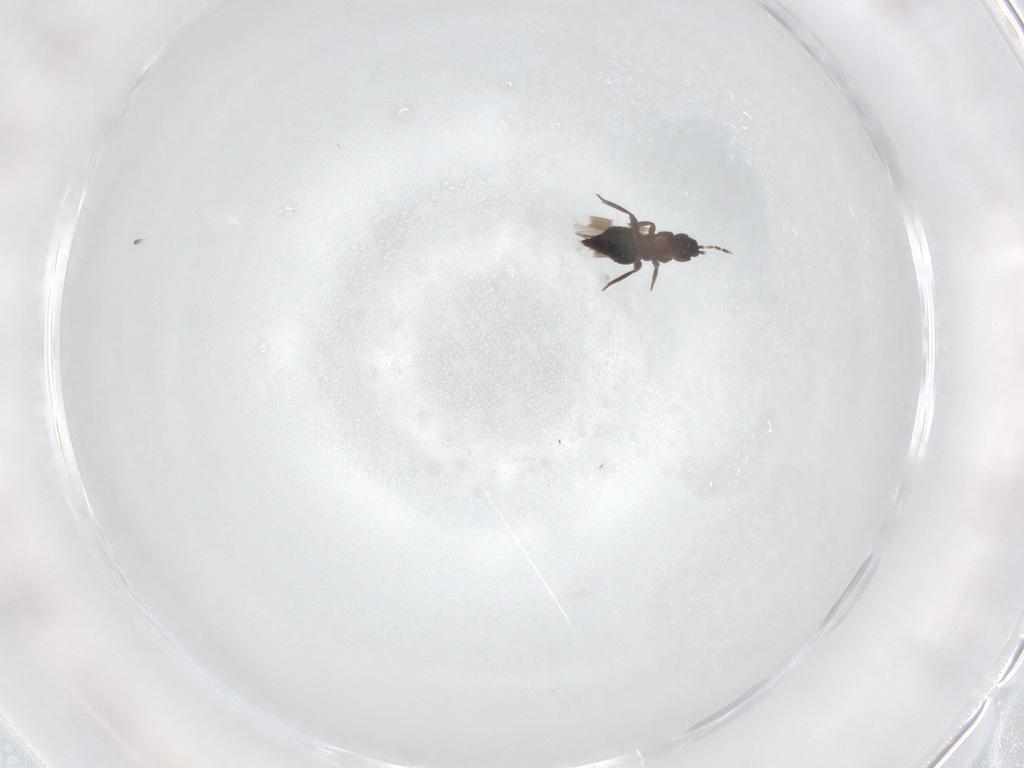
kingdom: Animalia
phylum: Arthropoda
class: Insecta
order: Thysanoptera
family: Aeolothripidae
